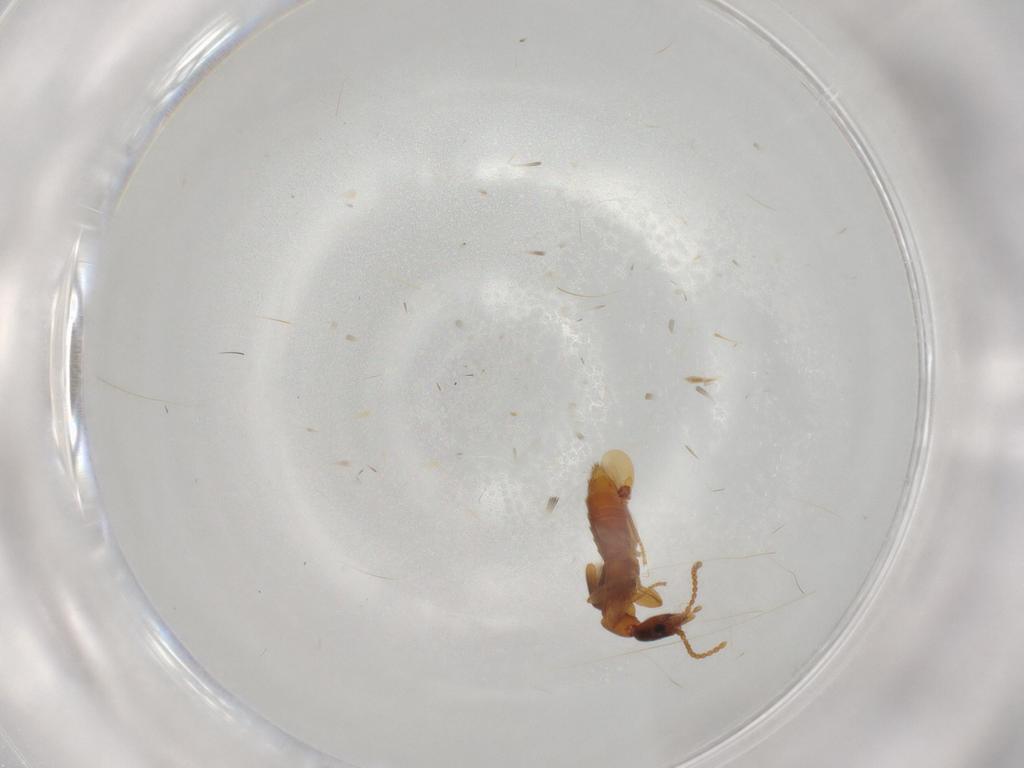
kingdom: Animalia
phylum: Arthropoda
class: Insecta
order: Coleoptera
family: Staphylinidae
